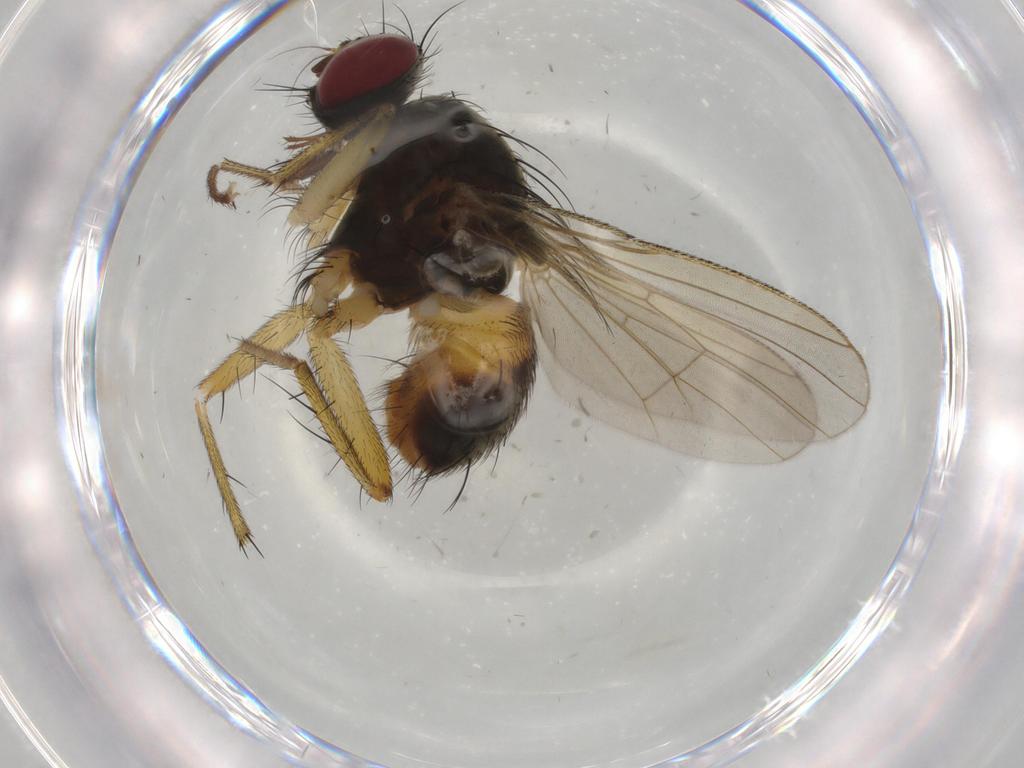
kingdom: Animalia
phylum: Arthropoda
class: Insecta
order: Diptera
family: Muscidae
